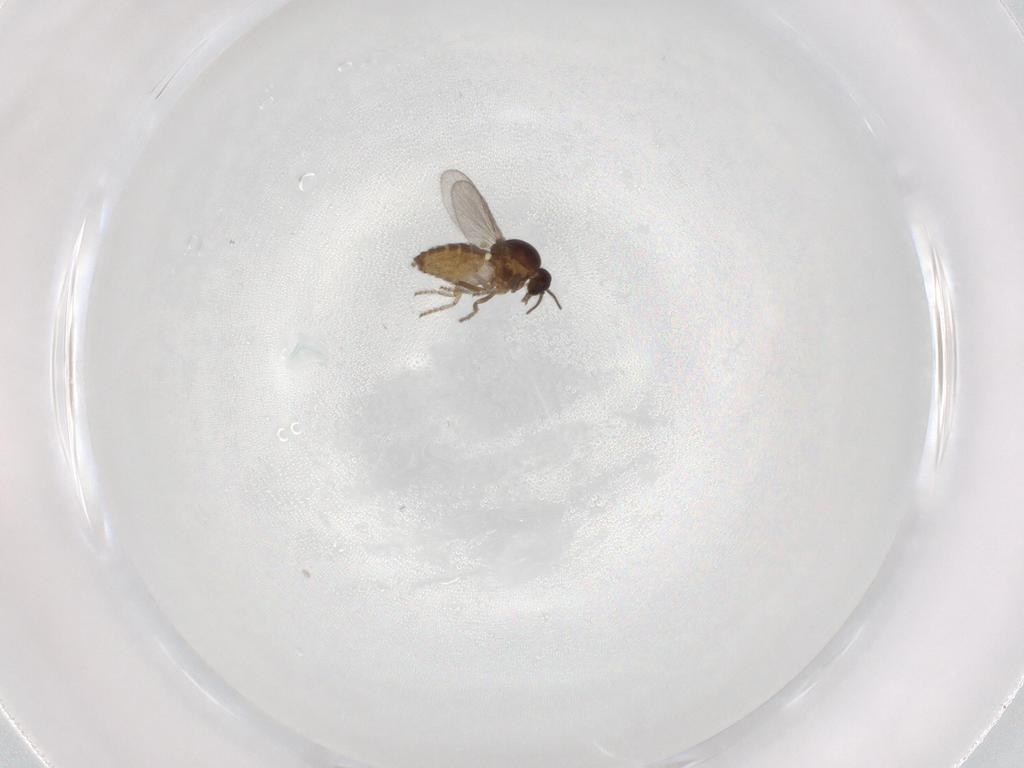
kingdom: Animalia
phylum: Arthropoda
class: Insecta
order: Diptera
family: Ceratopogonidae
